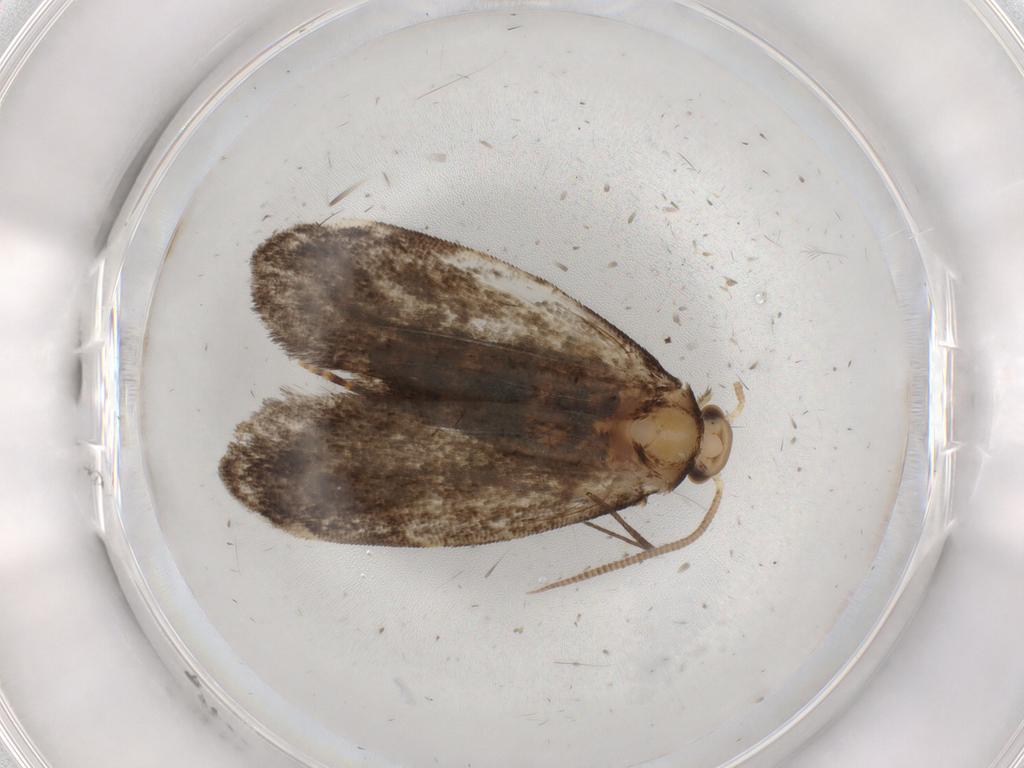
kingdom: Animalia
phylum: Arthropoda
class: Insecta
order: Lepidoptera
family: Dryadaulidae
